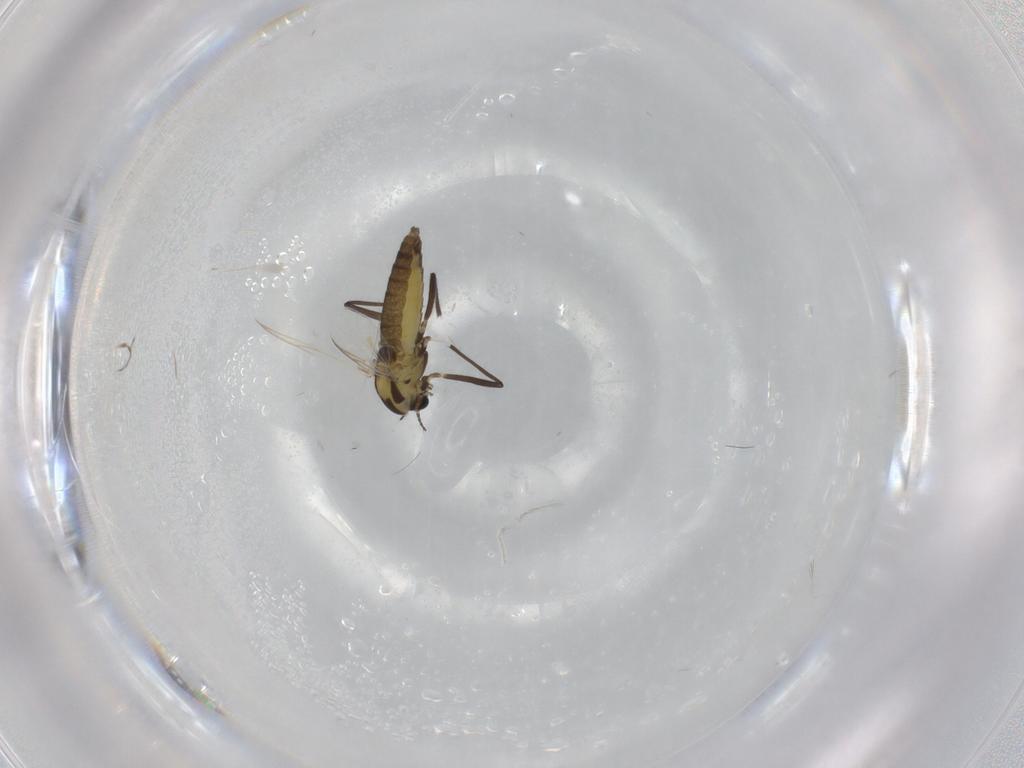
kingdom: Animalia
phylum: Arthropoda
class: Insecta
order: Diptera
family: Chironomidae
